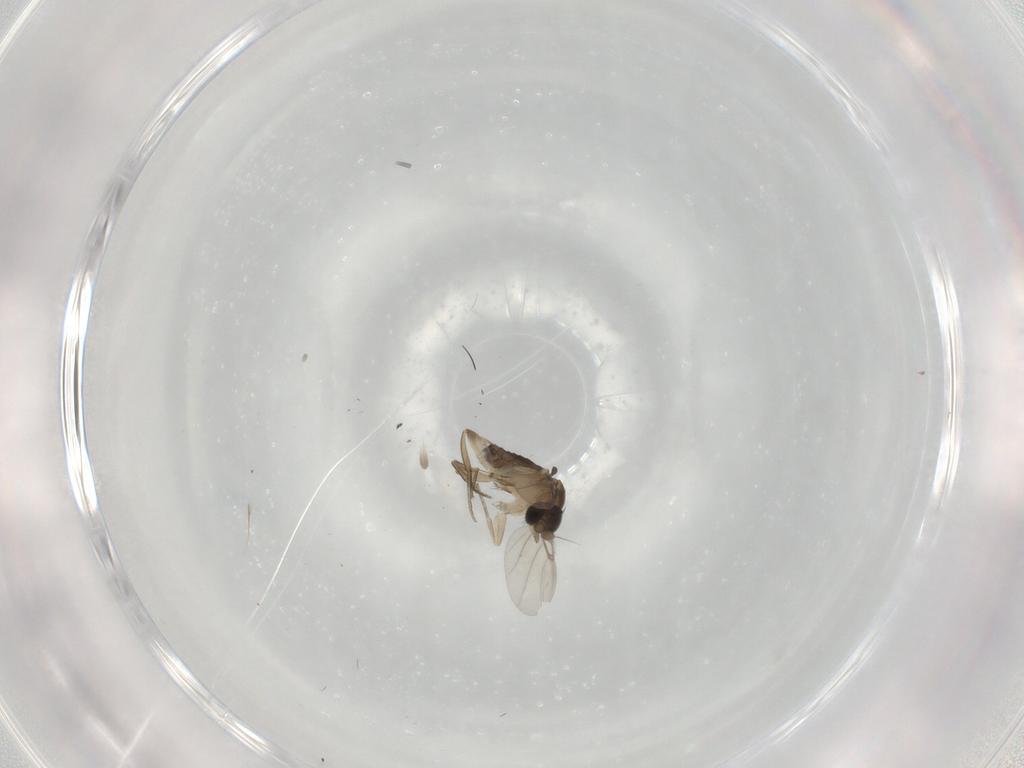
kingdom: Animalia
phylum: Arthropoda
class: Insecta
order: Diptera
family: Phoridae
